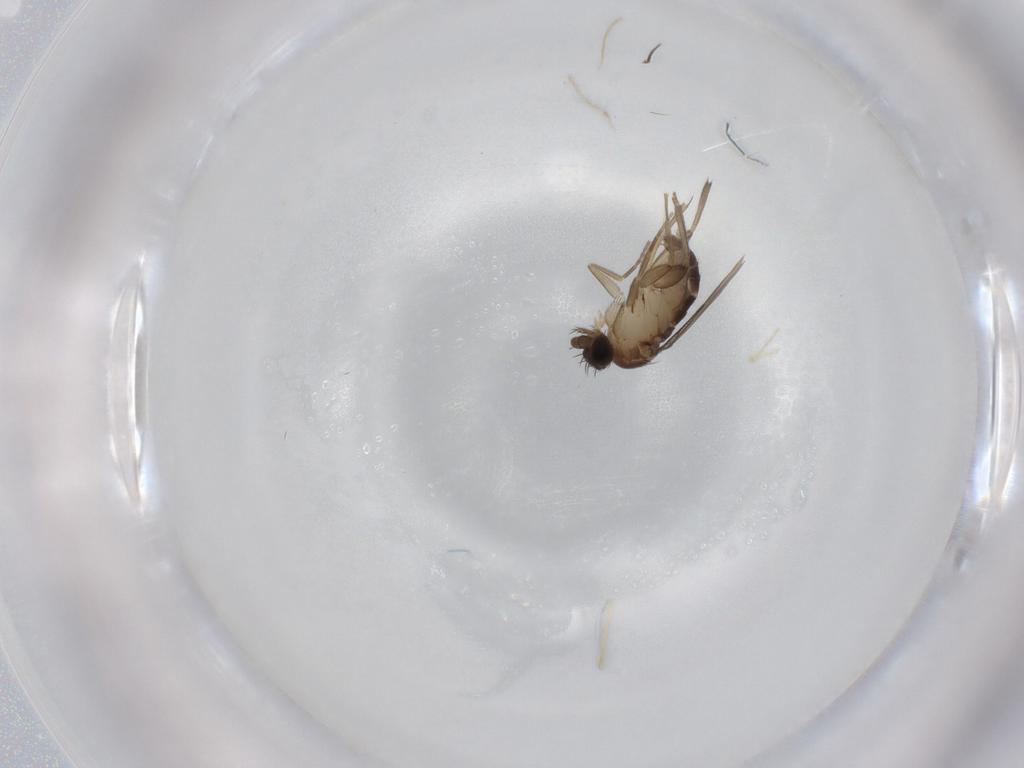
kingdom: Animalia
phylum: Arthropoda
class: Insecta
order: Diptera
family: Phoridae
